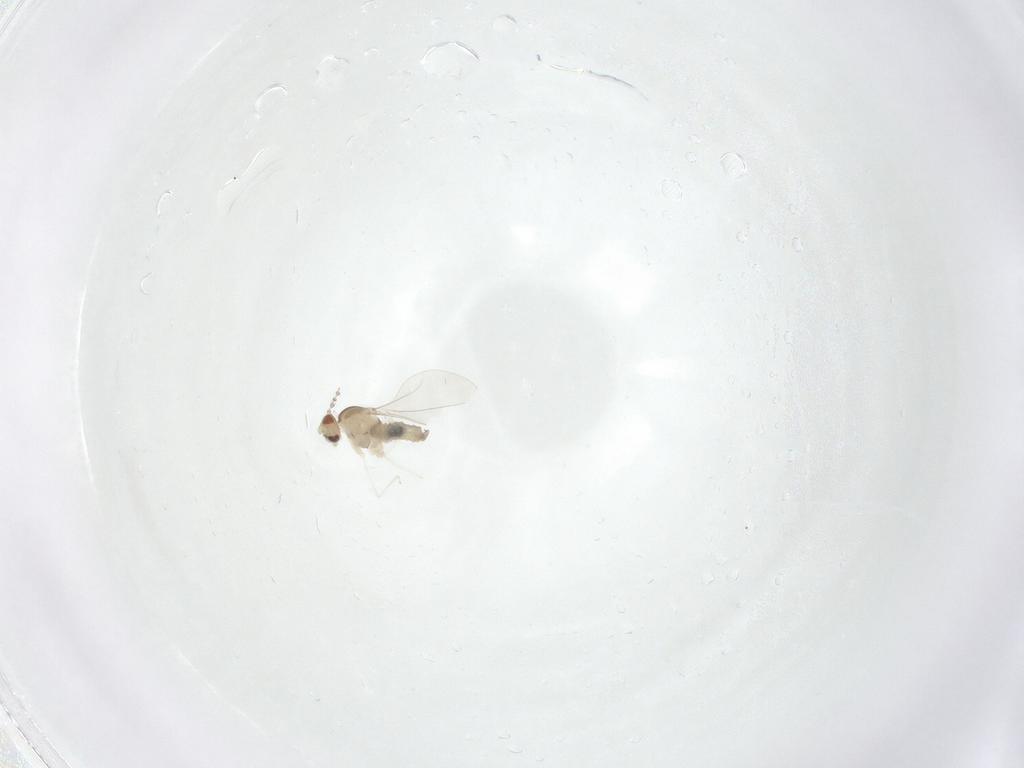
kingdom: Animalia
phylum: Arthropoda
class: Insecta
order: Diptera
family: Cecidomyiidae
